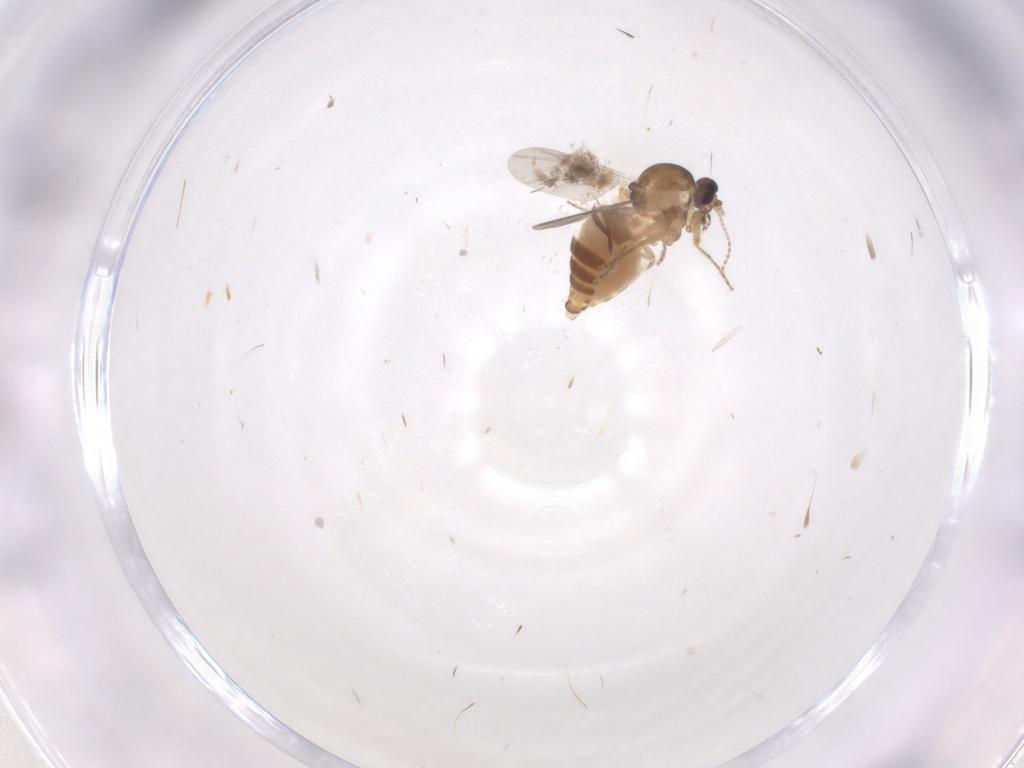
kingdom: Animalia
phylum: Arthropoda
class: Insecta
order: Diptera
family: Ceratopogonidae
